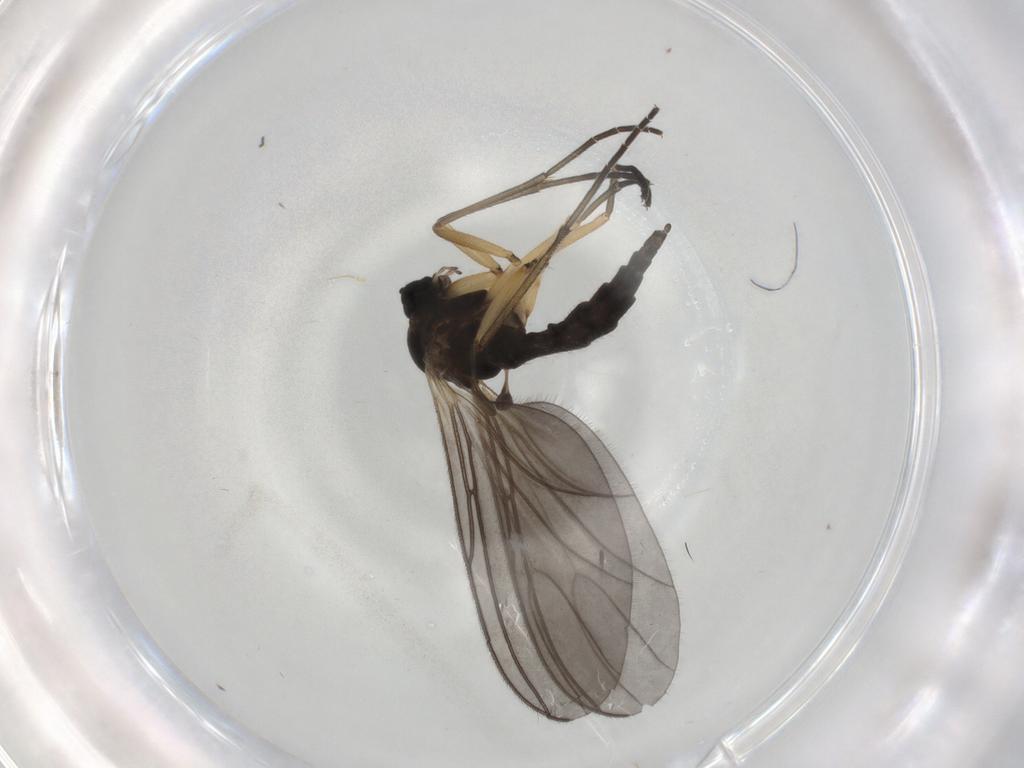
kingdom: Animalia
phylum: Arthropoda
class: Insecta
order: Diptera
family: Sciaridae
